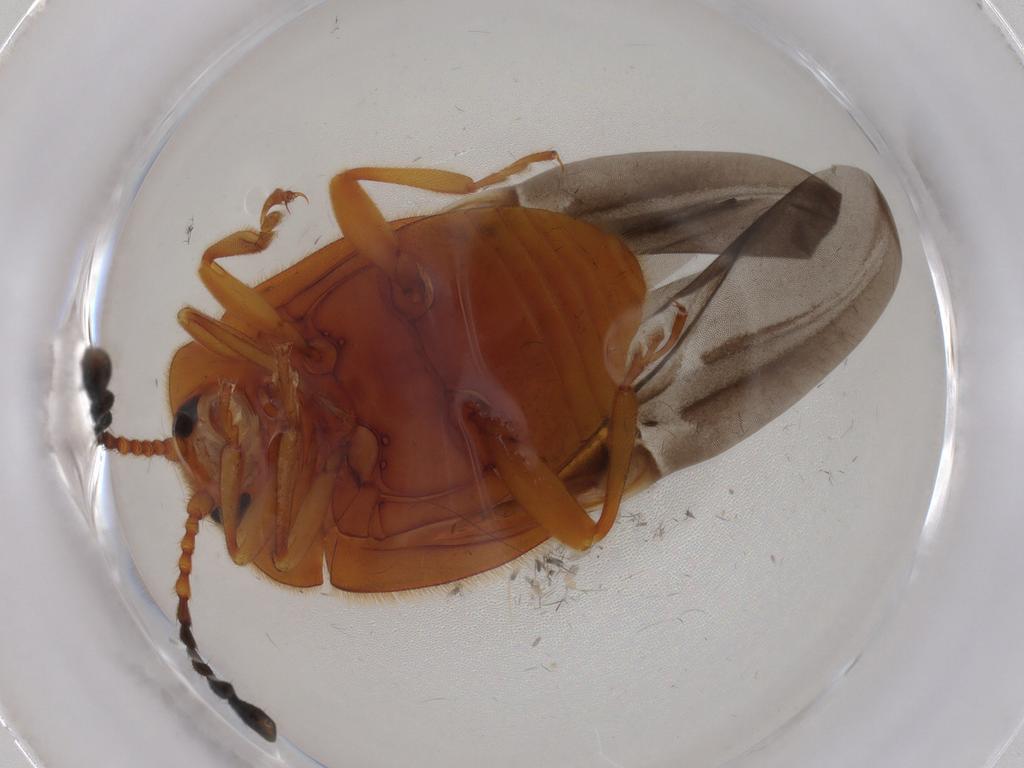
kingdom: Animalia
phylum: Arthropoda
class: Insecta
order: Coleoptera
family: Endomychidae
